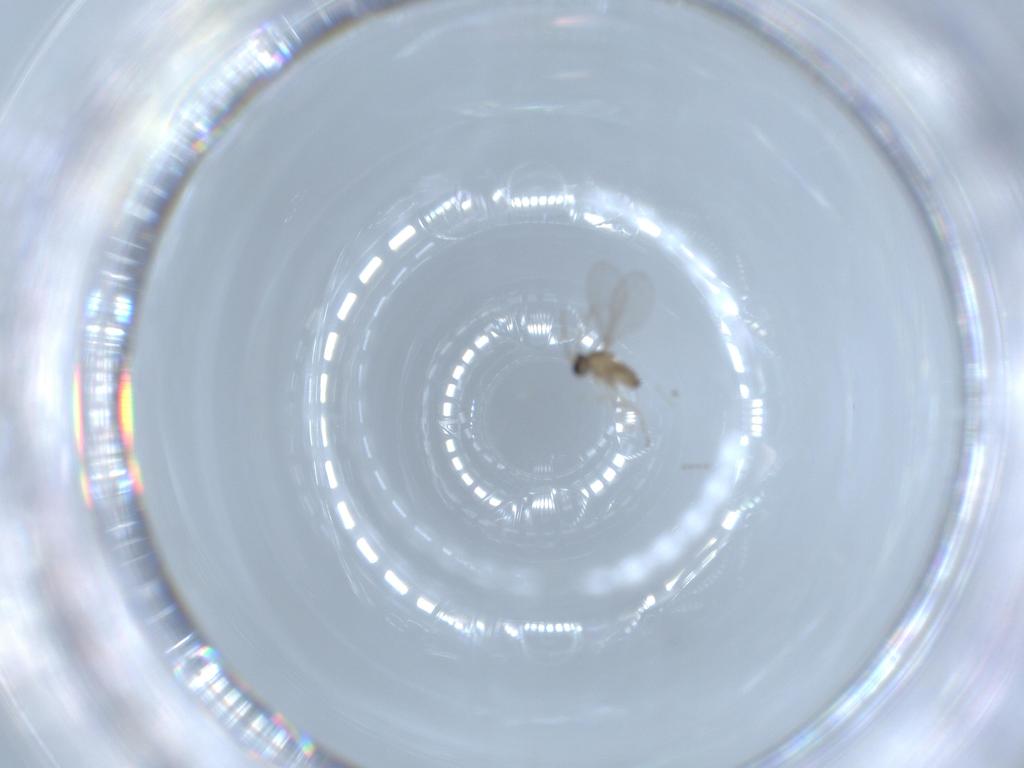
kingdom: Animalia
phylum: Arthropoda
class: Insecta
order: Diptera
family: Cecidomyiidae
